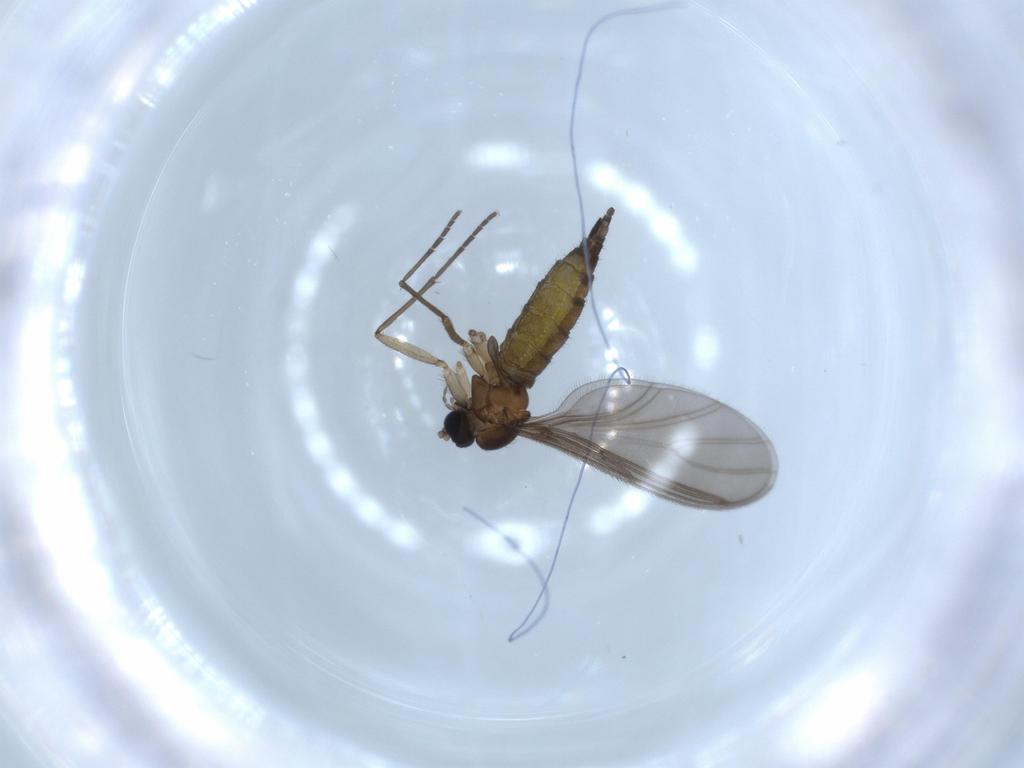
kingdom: Animalia
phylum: Arthropoda
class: Insecta
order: Diptera
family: Sciaridae
